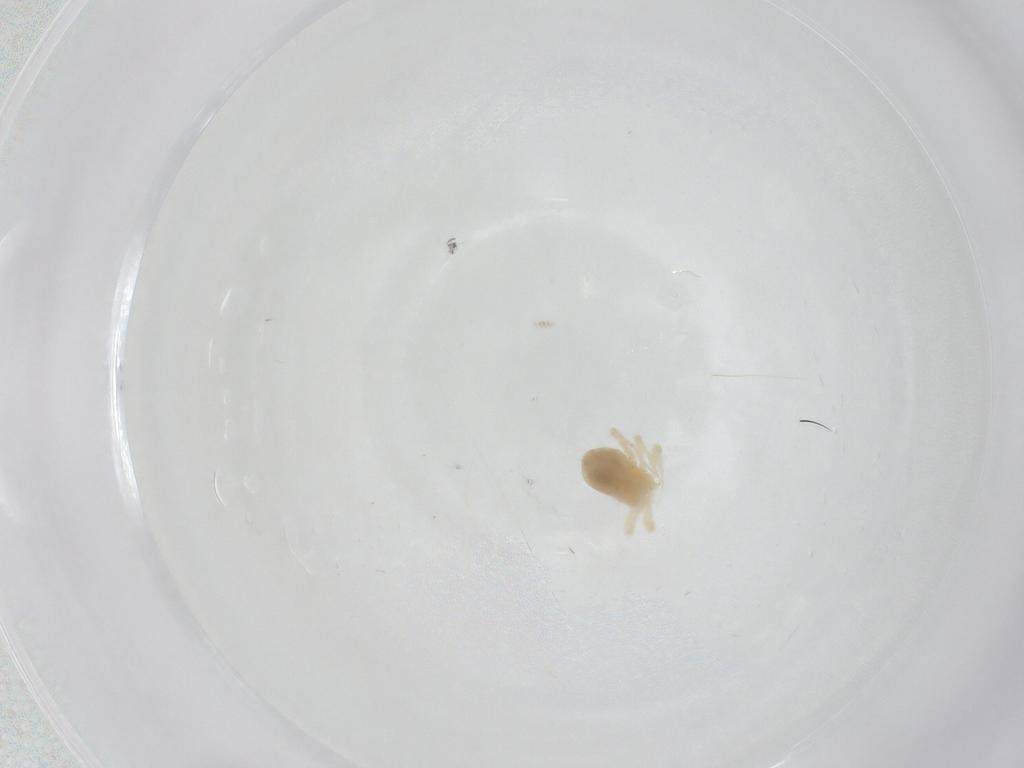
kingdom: Animalia
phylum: Arthropoda
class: Arachnida
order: Trombidiformes
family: Anystidae
